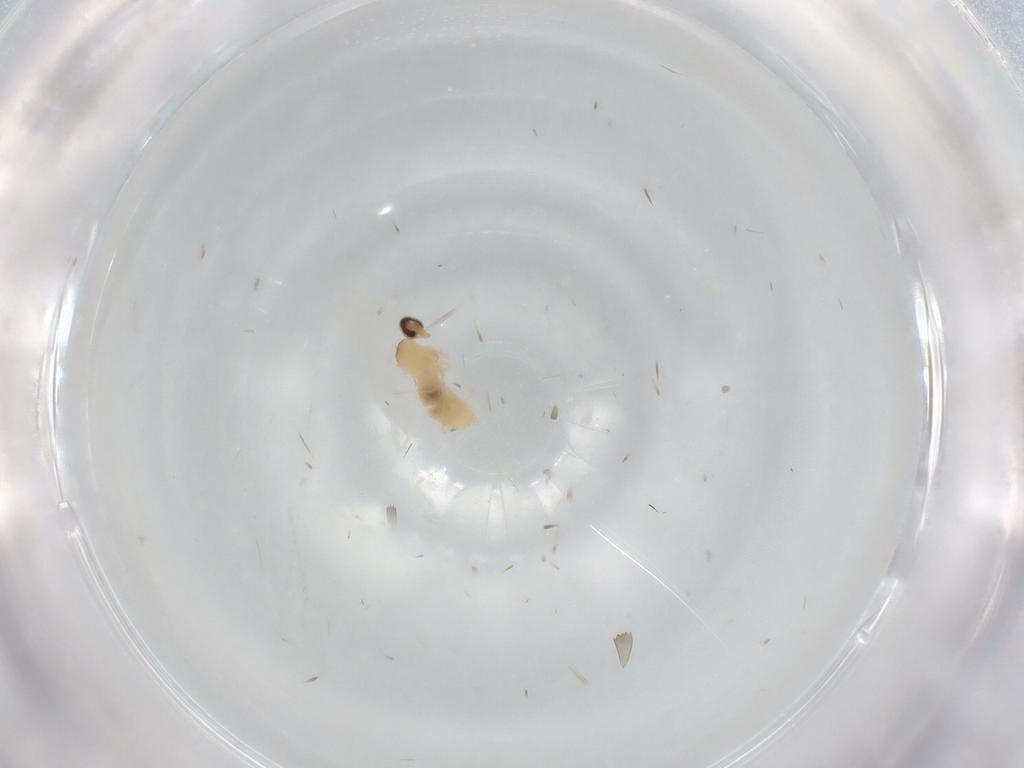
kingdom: Animalia
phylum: Arthropoda
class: Insecta
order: Diptera
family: Cecidomyiidae
